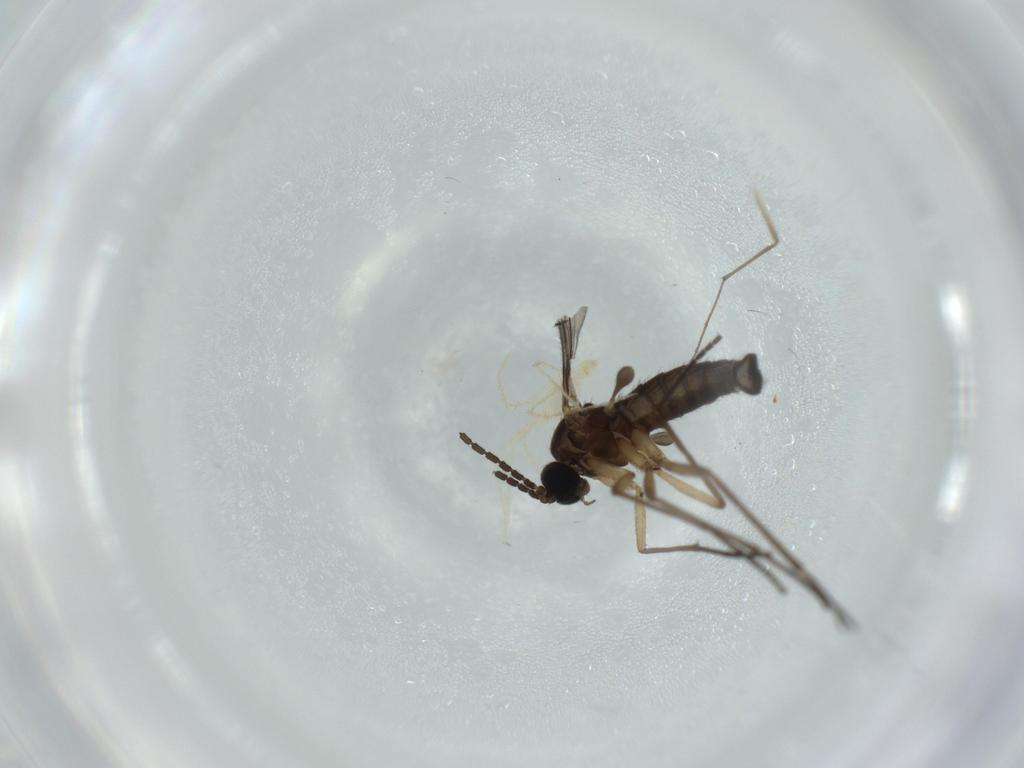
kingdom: Animalia
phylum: Arthropoda
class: Insecta
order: Diptera
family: Chironomidae
